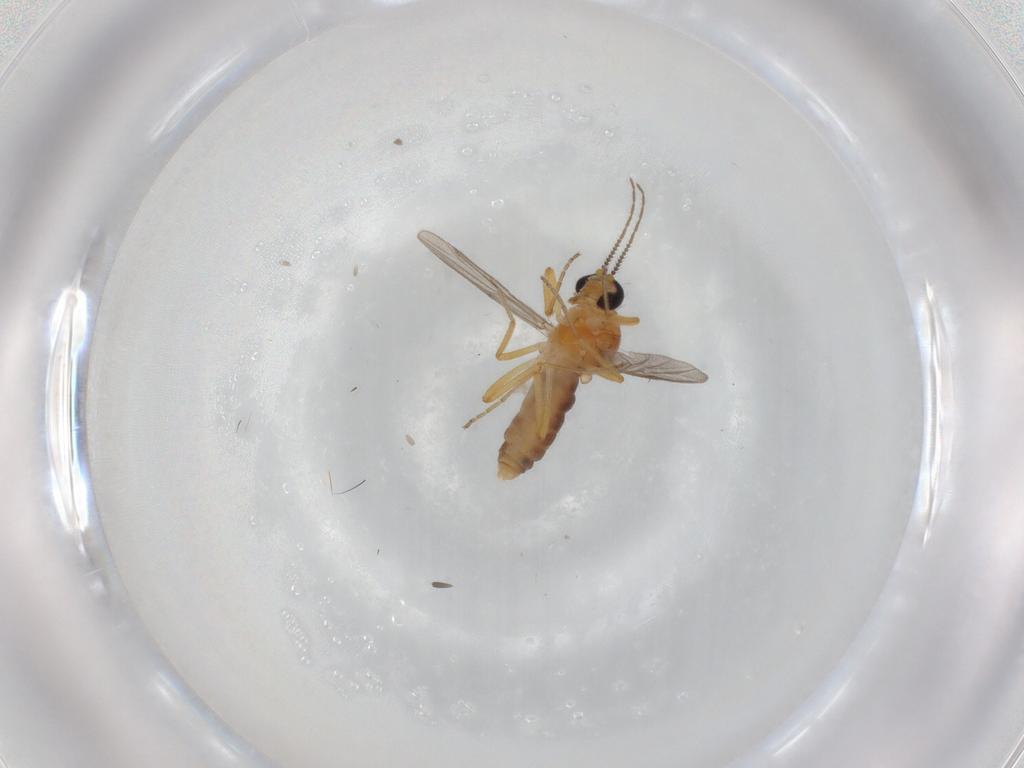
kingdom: Animalia
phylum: Arthropoda
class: Insecta
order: Diptera
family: Ceratopogonidae
